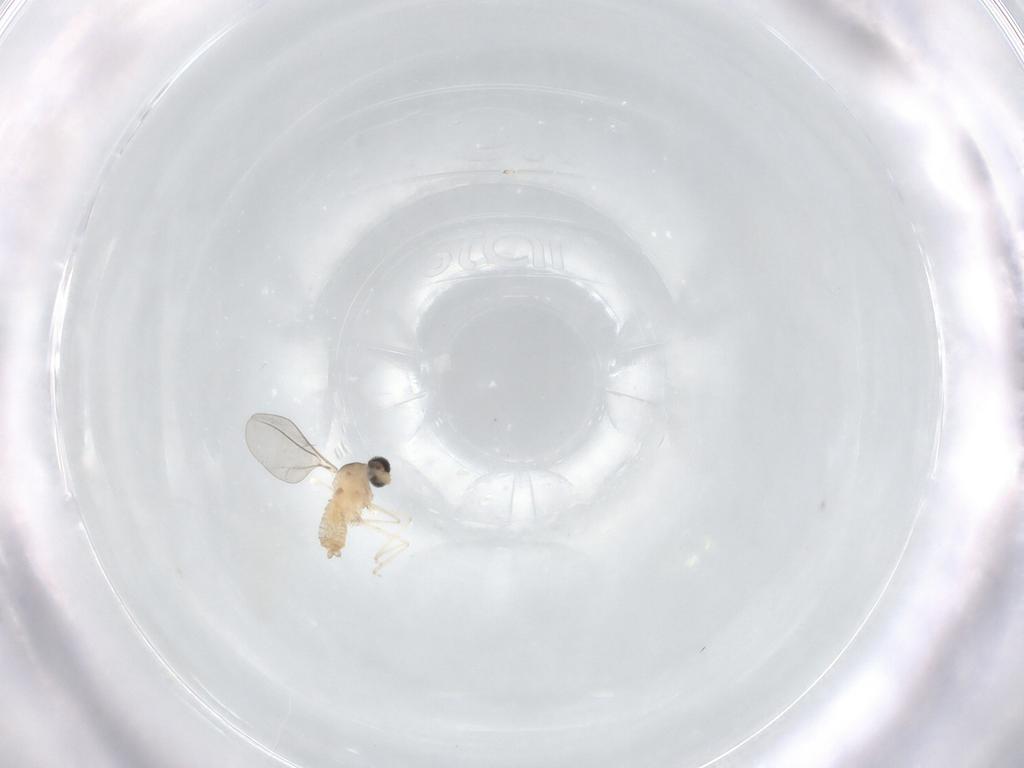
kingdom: Animalia
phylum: Arthropoda
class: Insecta
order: Diptera
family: Cecidomyiidae
